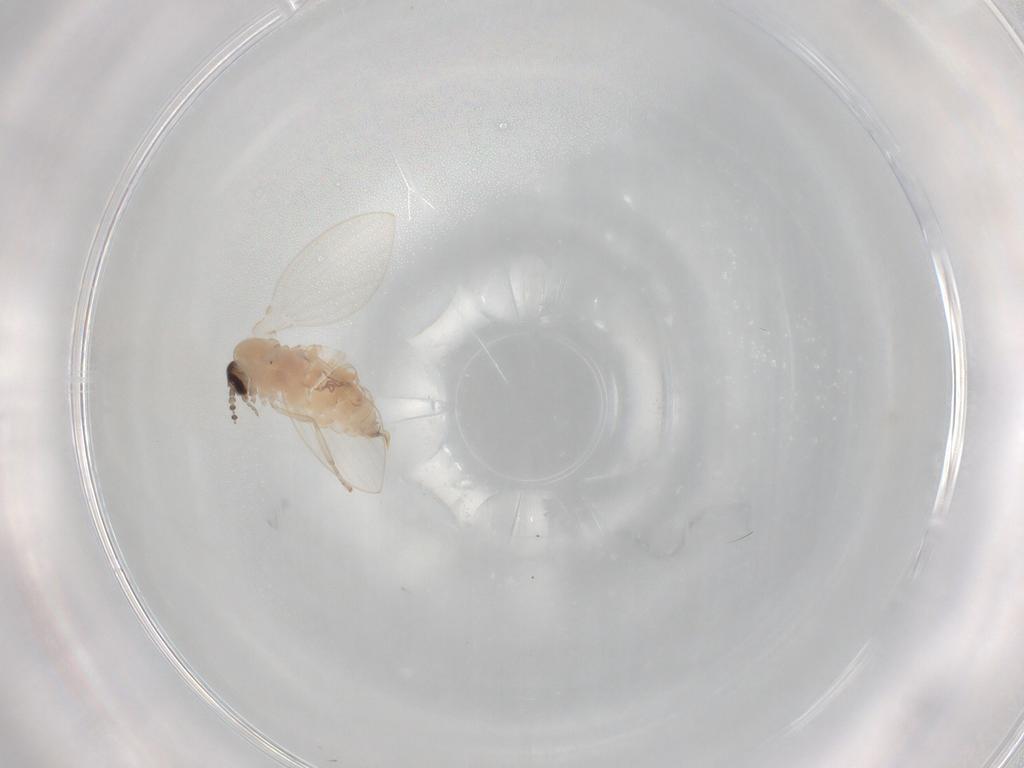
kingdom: Animalia
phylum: Arthropoda
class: Insecta
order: Diptera
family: Psychodidae
